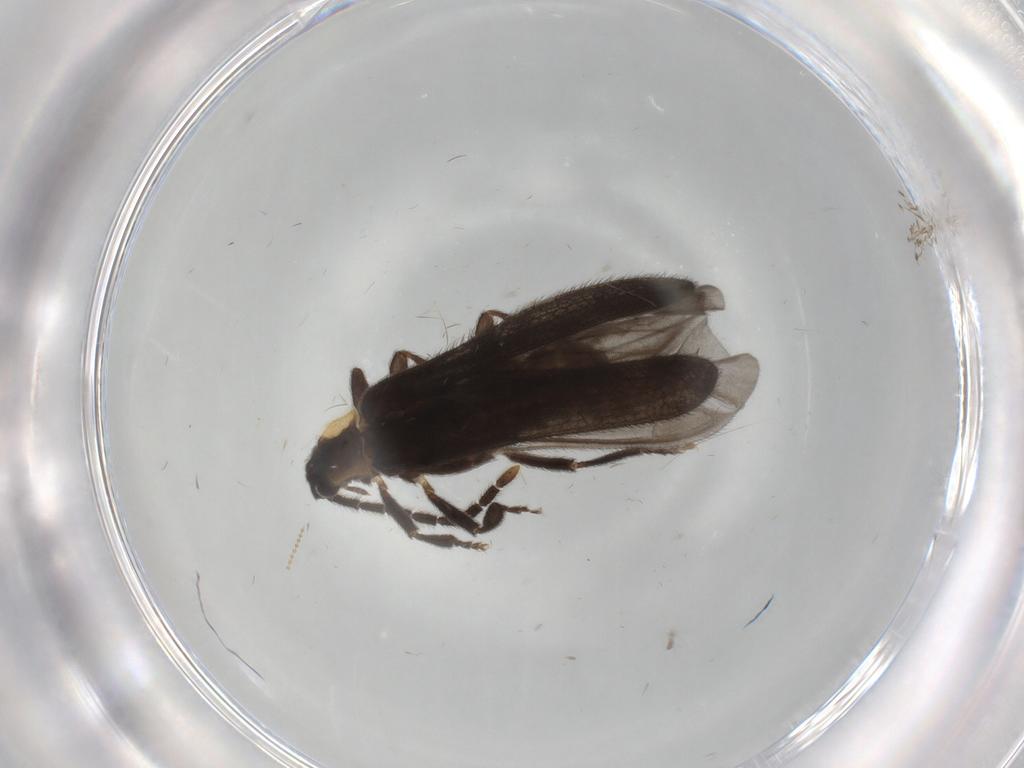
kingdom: Animalia
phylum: Arthropoda
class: Insecta
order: Coleoptera
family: Lycidae
